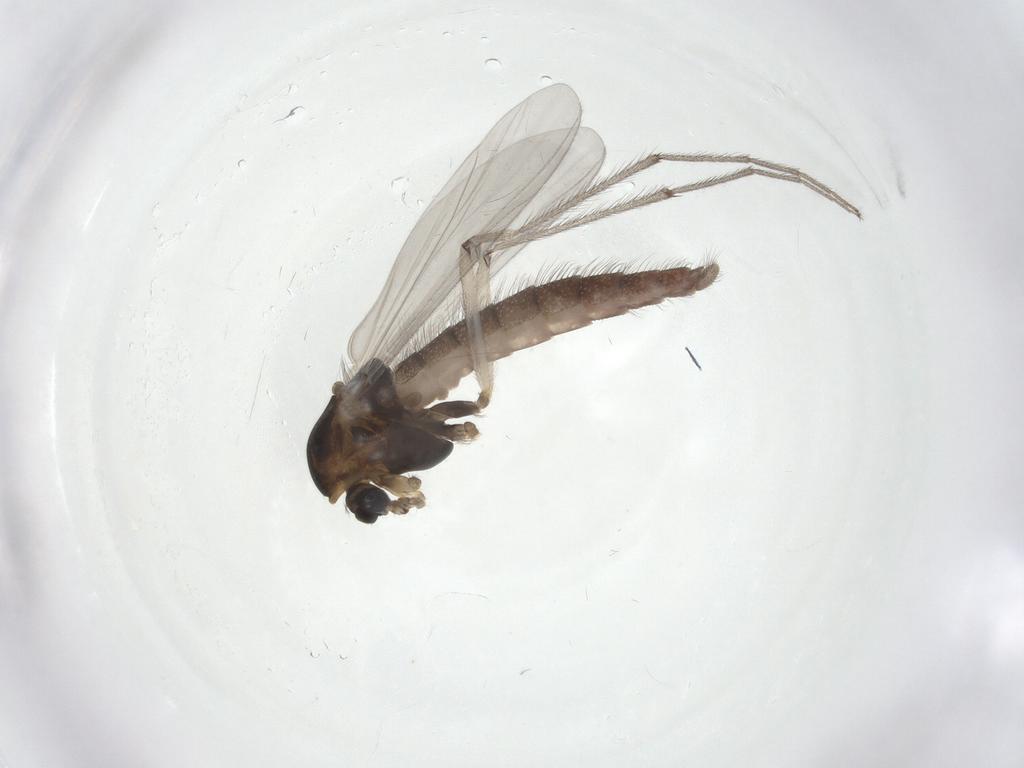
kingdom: Animalia
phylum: Arthropoda
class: Insecta
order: Diptera
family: Chironomidae
